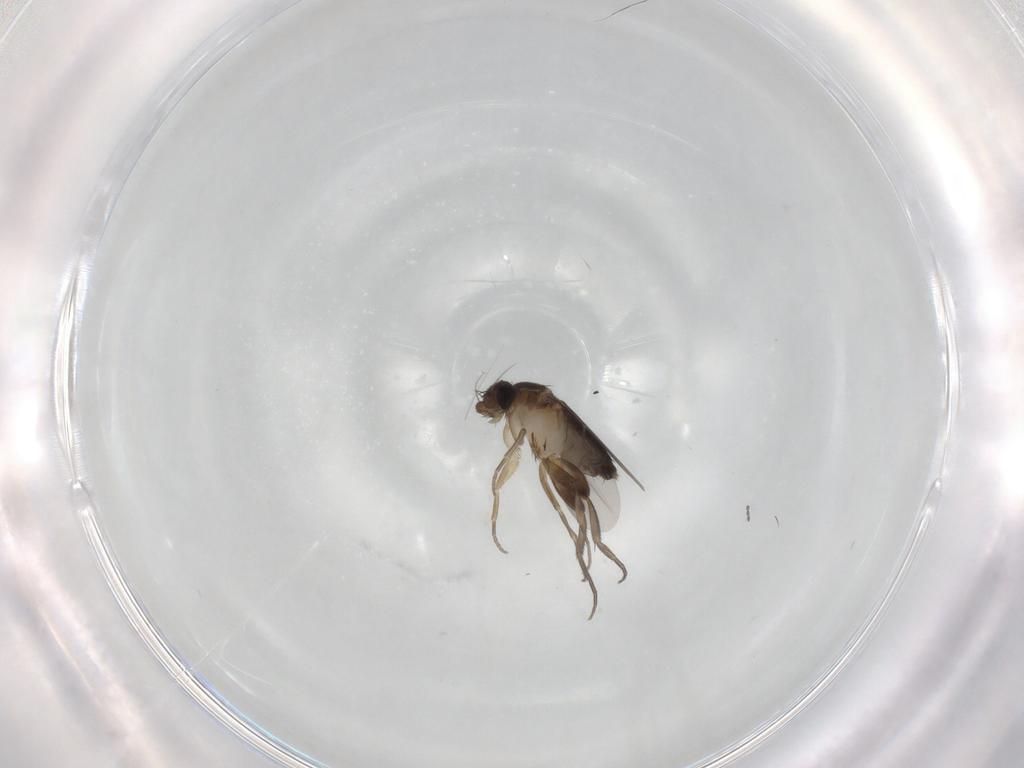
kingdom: Animalia
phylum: Arthropoda
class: Insecta
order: Diptera
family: Phoridae
